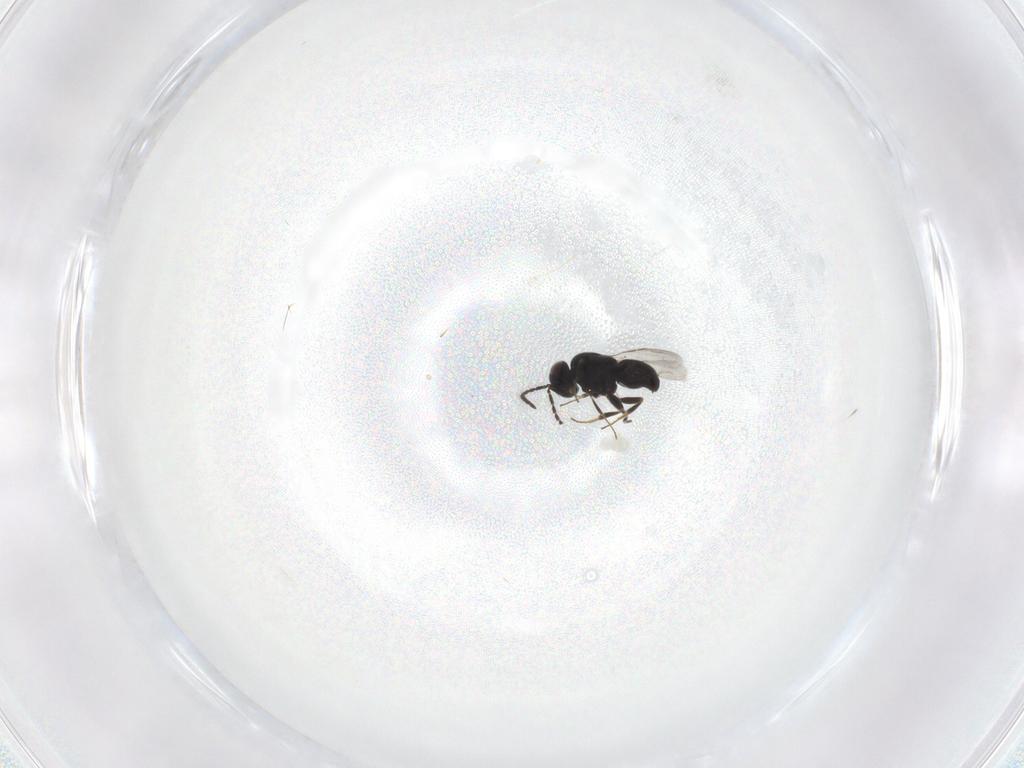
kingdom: Animalia
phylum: Arthropoda
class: Insecta
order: Hymenoptera
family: Ceraphronidae
